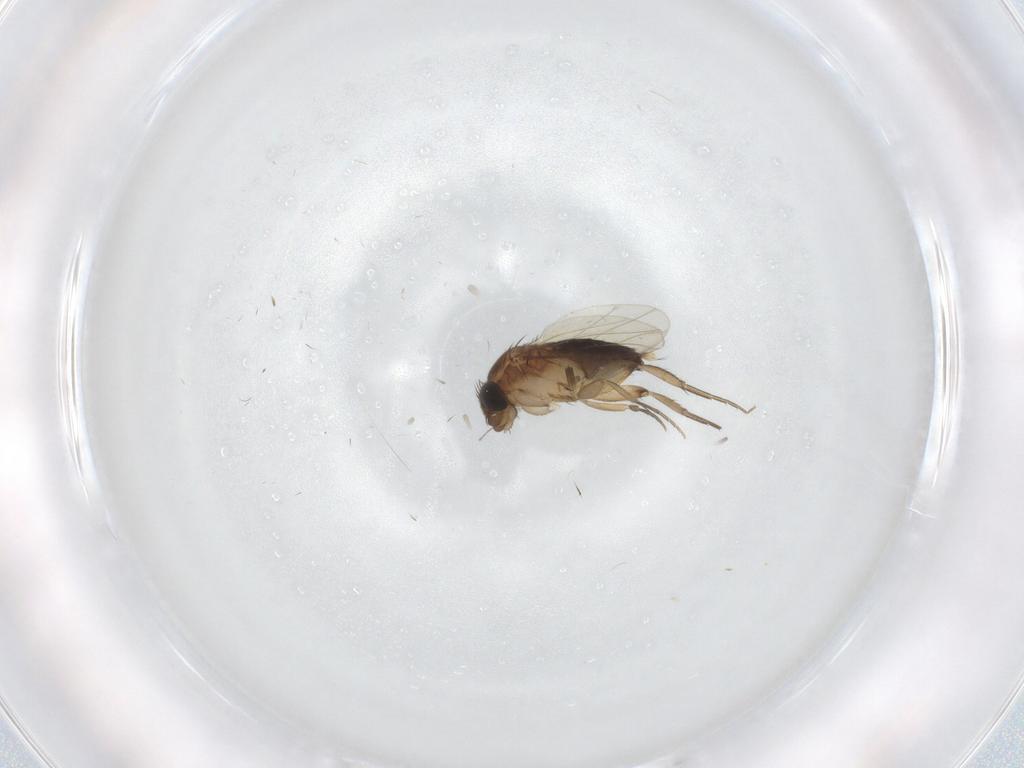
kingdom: Animalia
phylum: Arthropoda
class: Insecta
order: Diptera
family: Phoridae
